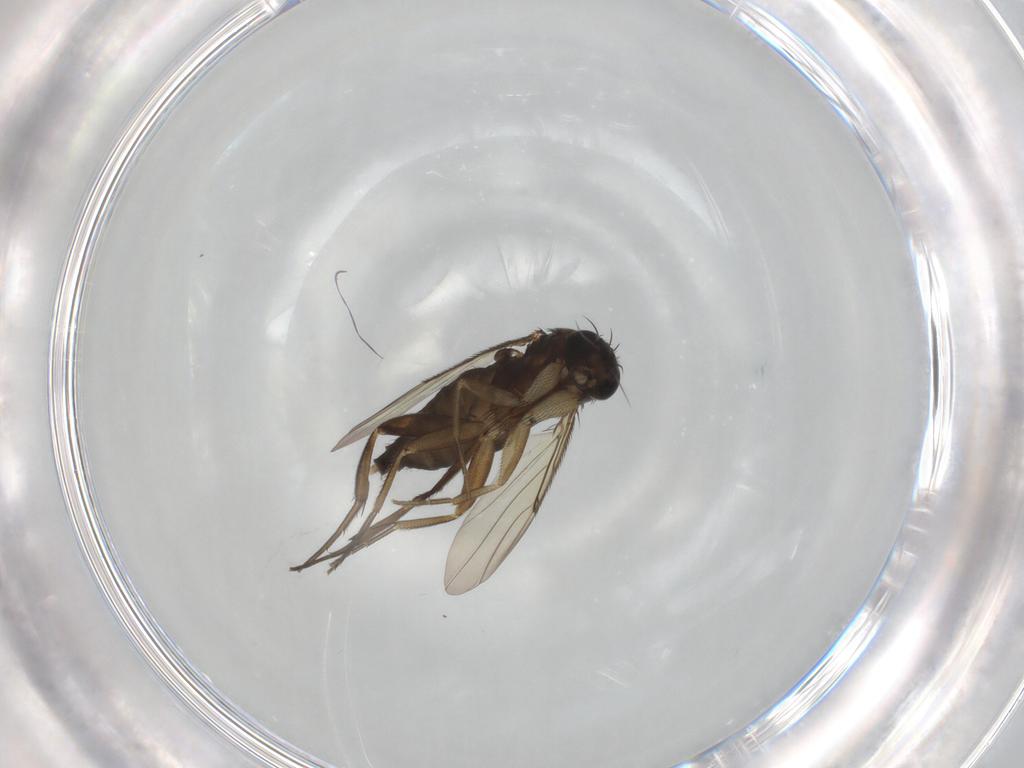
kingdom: Animalia
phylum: Arthropoda
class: Insecta
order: Diptera
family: Phoridae
